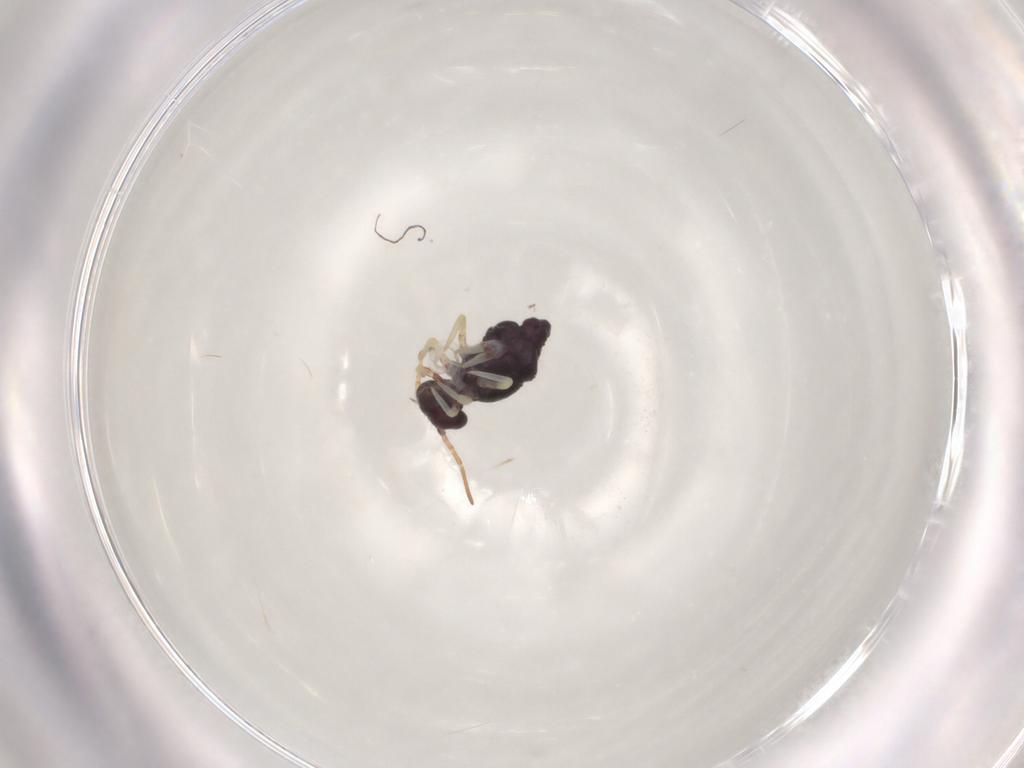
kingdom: Animalia
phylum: Arthropoda
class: Insecta
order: Hymenoptera
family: Scelionidae
